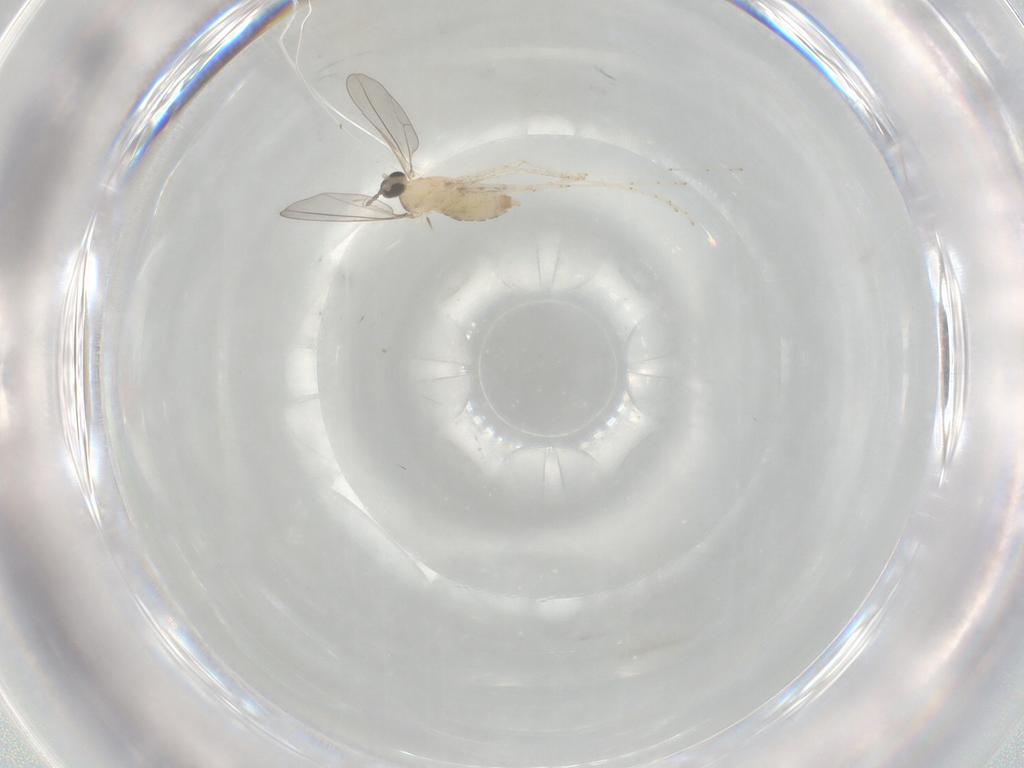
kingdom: Animalia
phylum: Arthropoda
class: Insecta
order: Diptera
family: Cecidomyiidae
